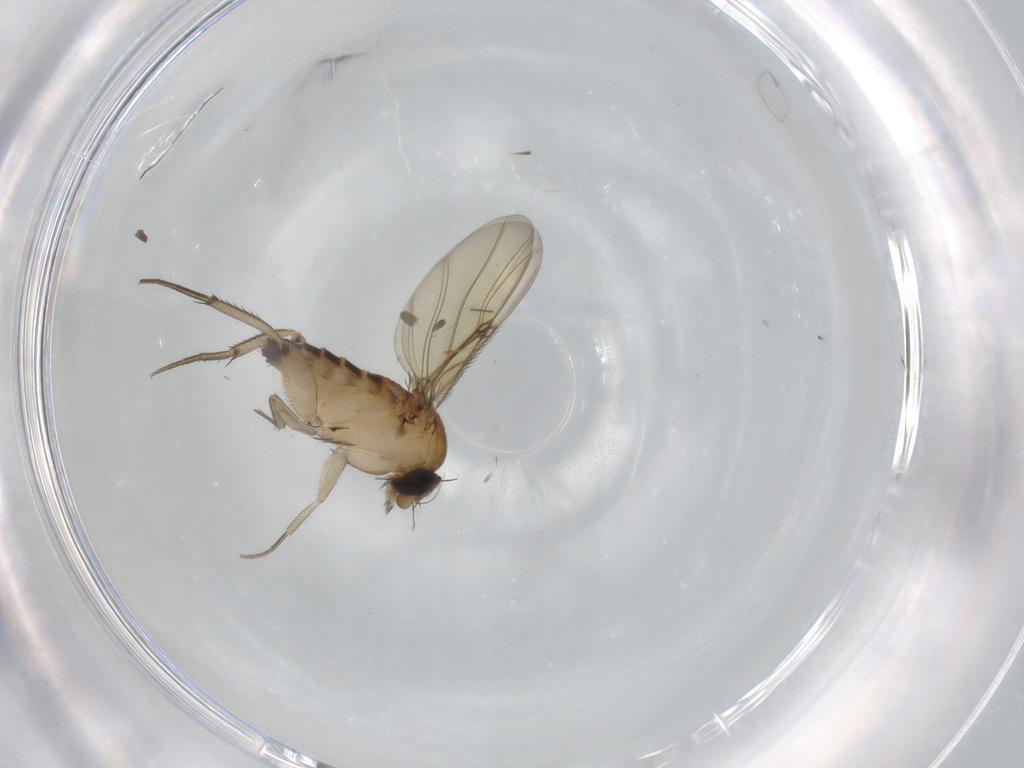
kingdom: Animalia
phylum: Arthropoda
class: Insecta
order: Diptera
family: Phoridae
